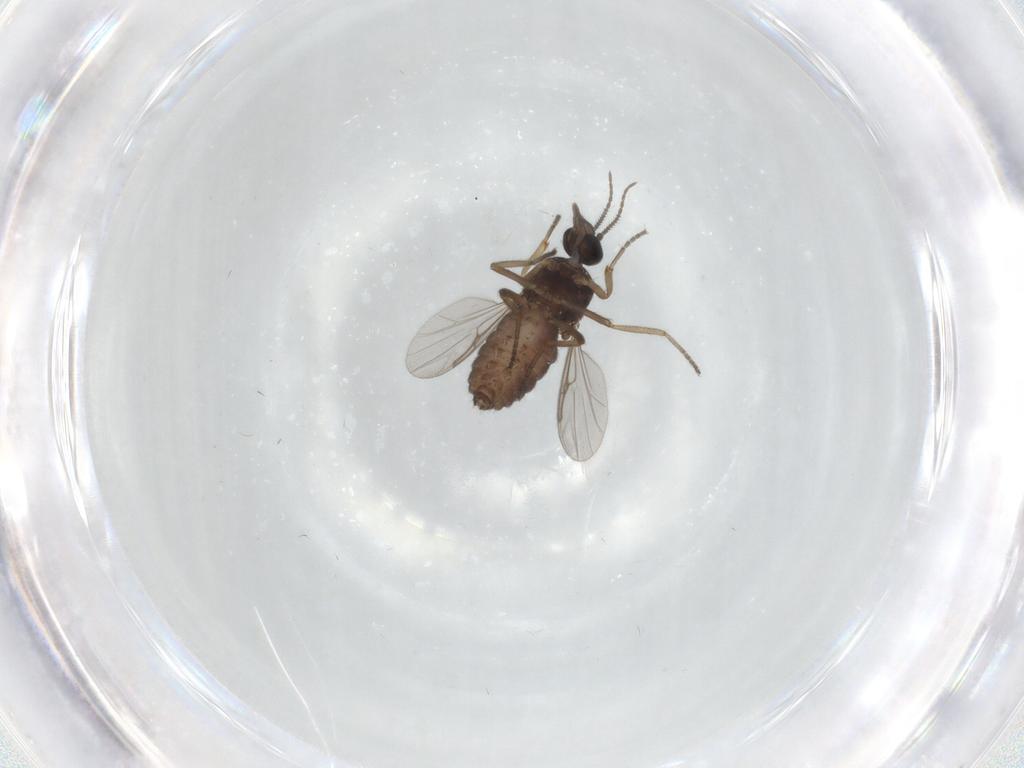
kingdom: Animalia
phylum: Arthropoda
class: Insecta
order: Diptera
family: Ceratopogonidae
